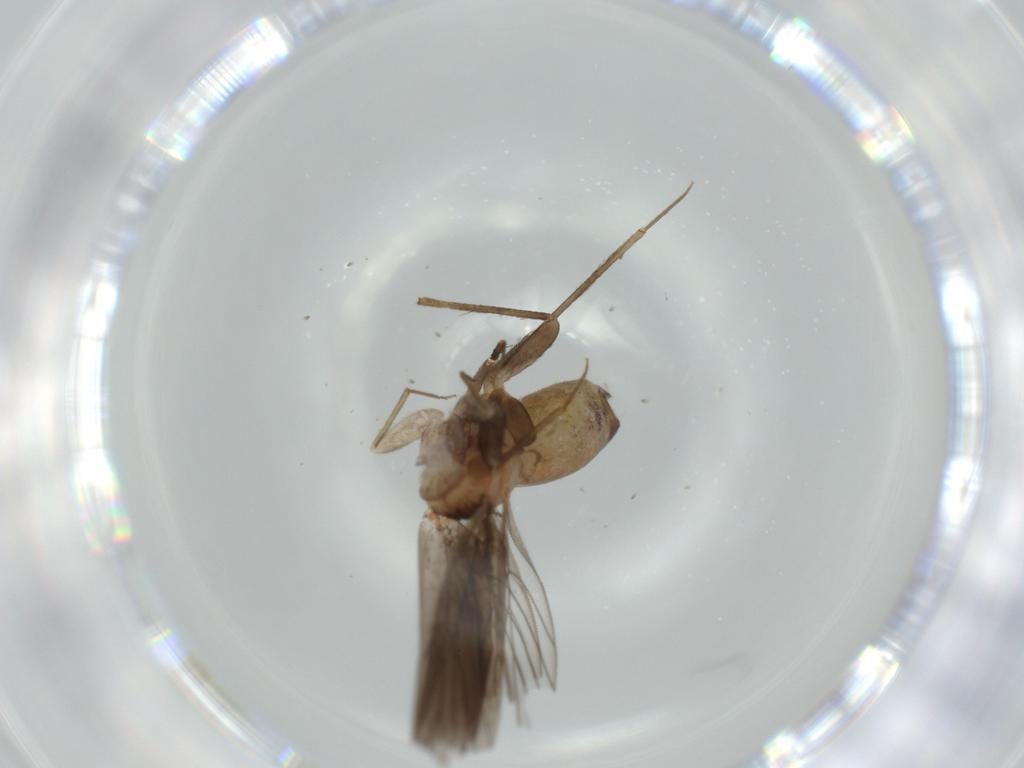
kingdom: Animalia
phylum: Arthropoda
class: Insecta
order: Psocodea
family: Lepidopsocidae
